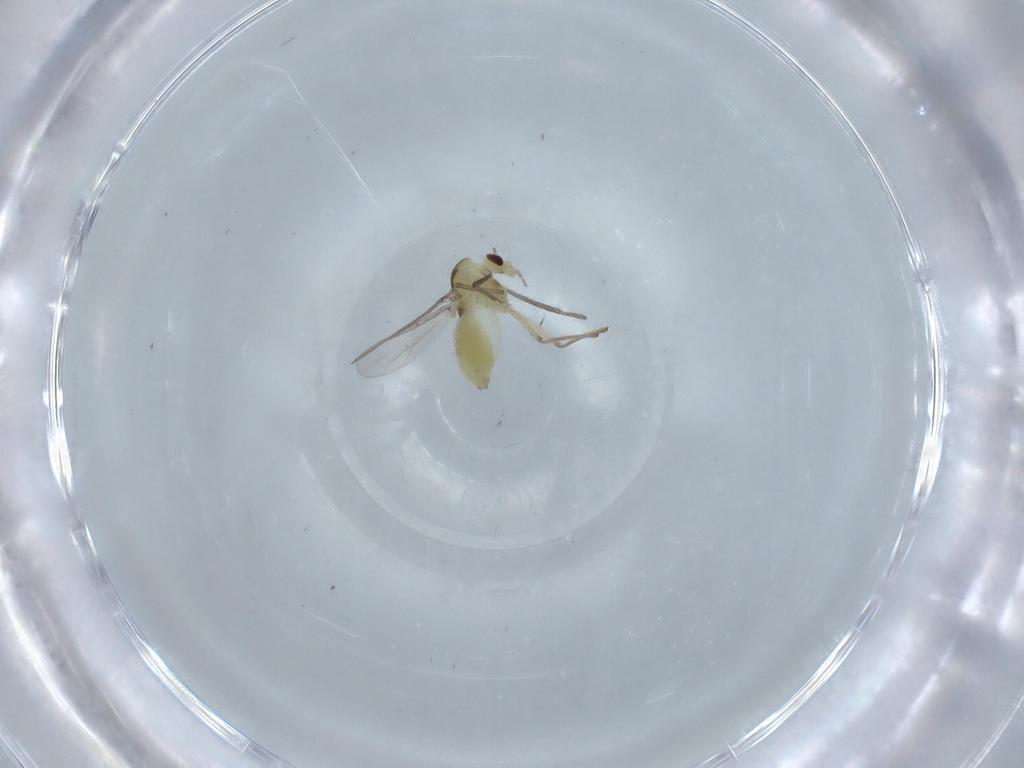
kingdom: Animalia
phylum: Arthropoda
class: Insecta
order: Diptera
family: Chironomidae
